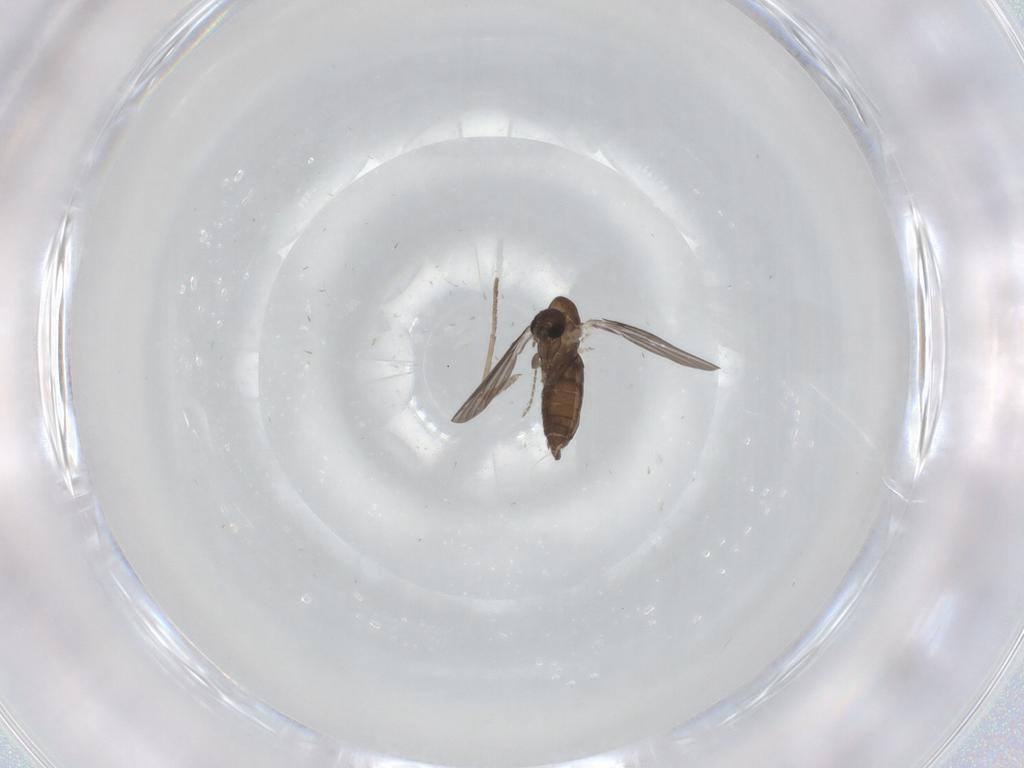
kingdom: Animalia
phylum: Arthropoda
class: Insecta
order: Diptera
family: Ceratopogonidae
